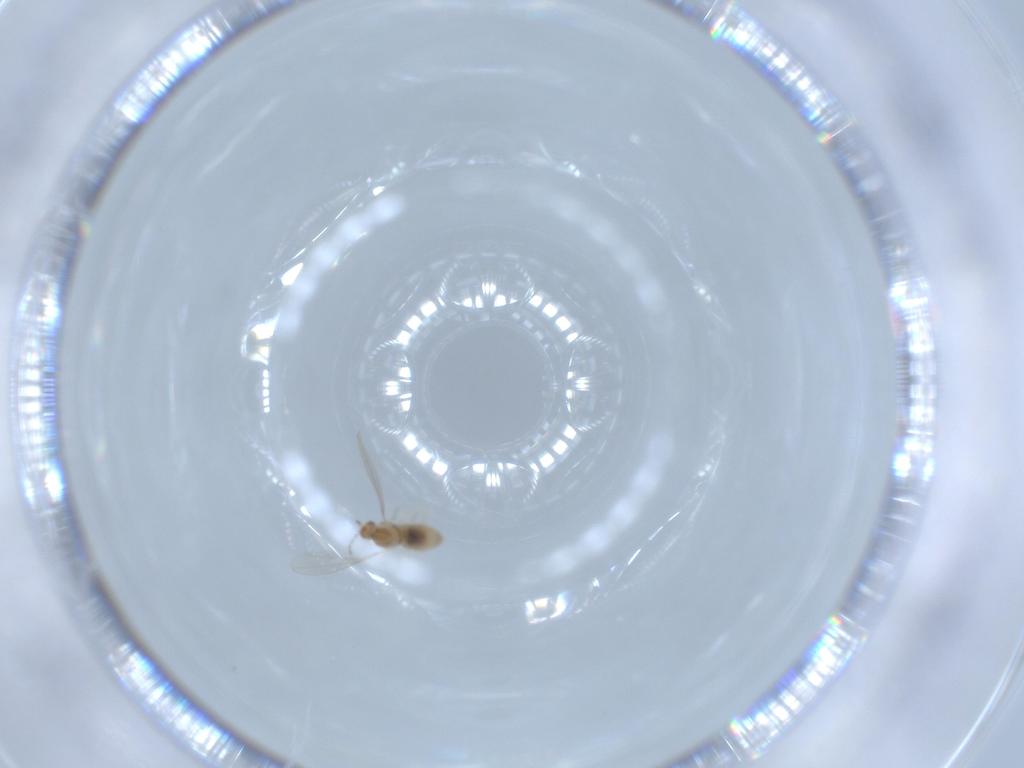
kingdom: Animalia
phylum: Arthropoda
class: Insecta
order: Diptera
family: Cecidomyiidae
